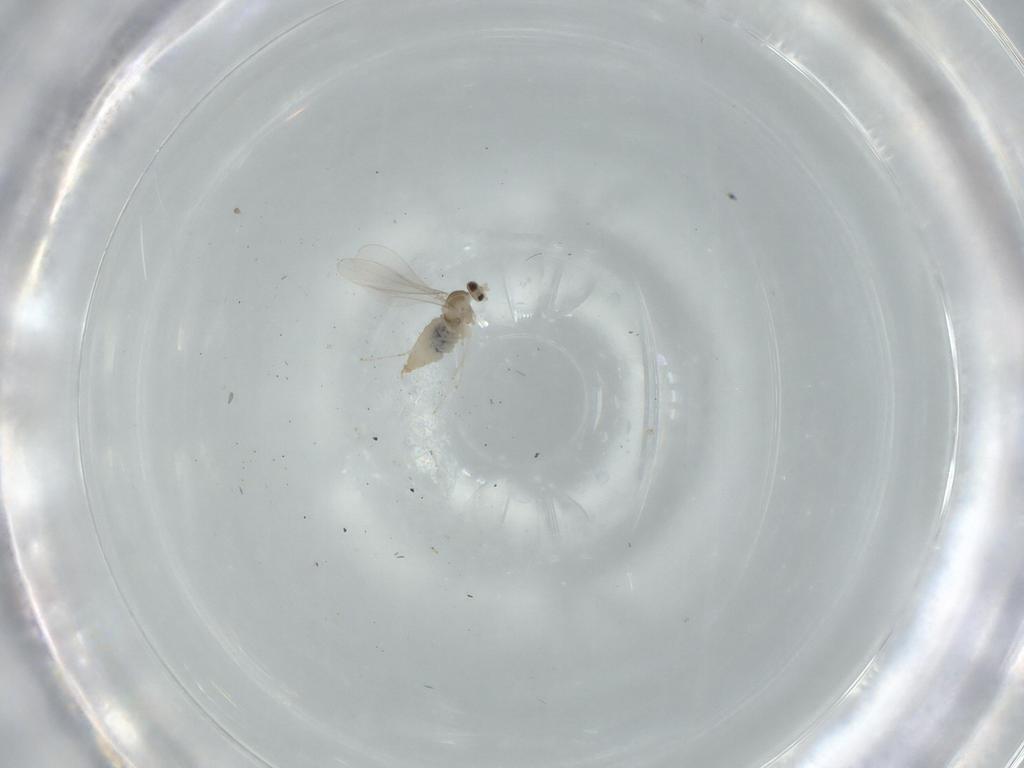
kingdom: Animalia
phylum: Arthropoda
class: Insecta
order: Diptera
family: Cecidomyiidae
